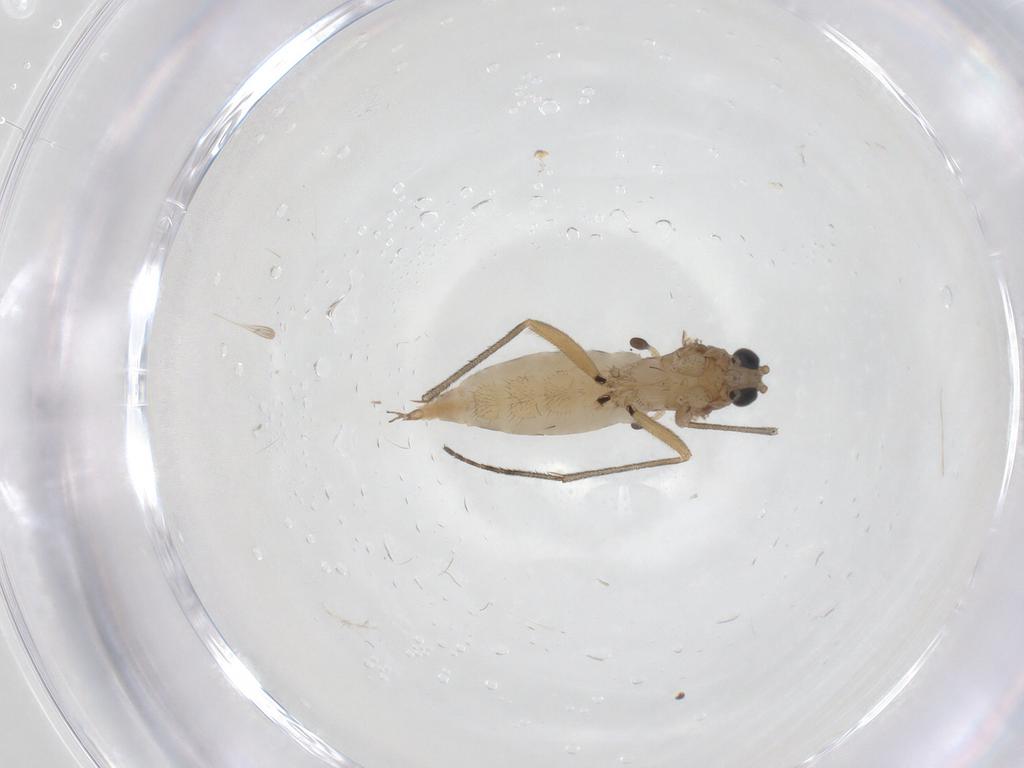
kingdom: Animalia
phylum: Arthropoda
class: Insecta
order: Diptera
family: Sciaridae
